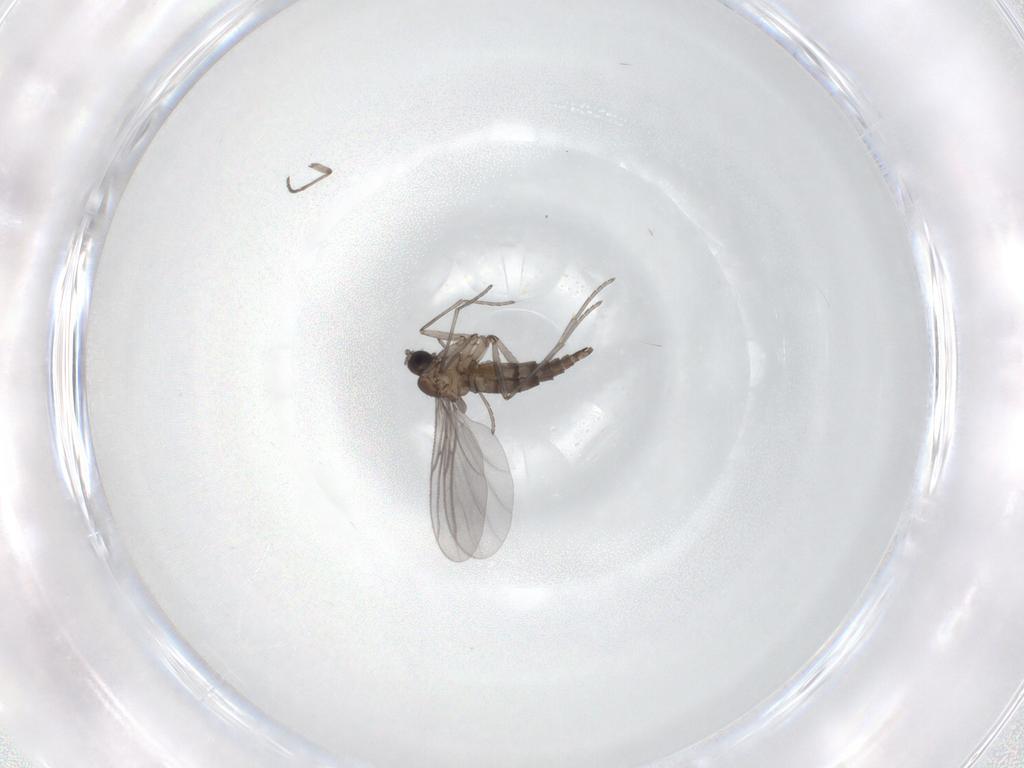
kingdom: Animalia
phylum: Arthropoda
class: Insecta
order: Diptera
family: Sciaridae
